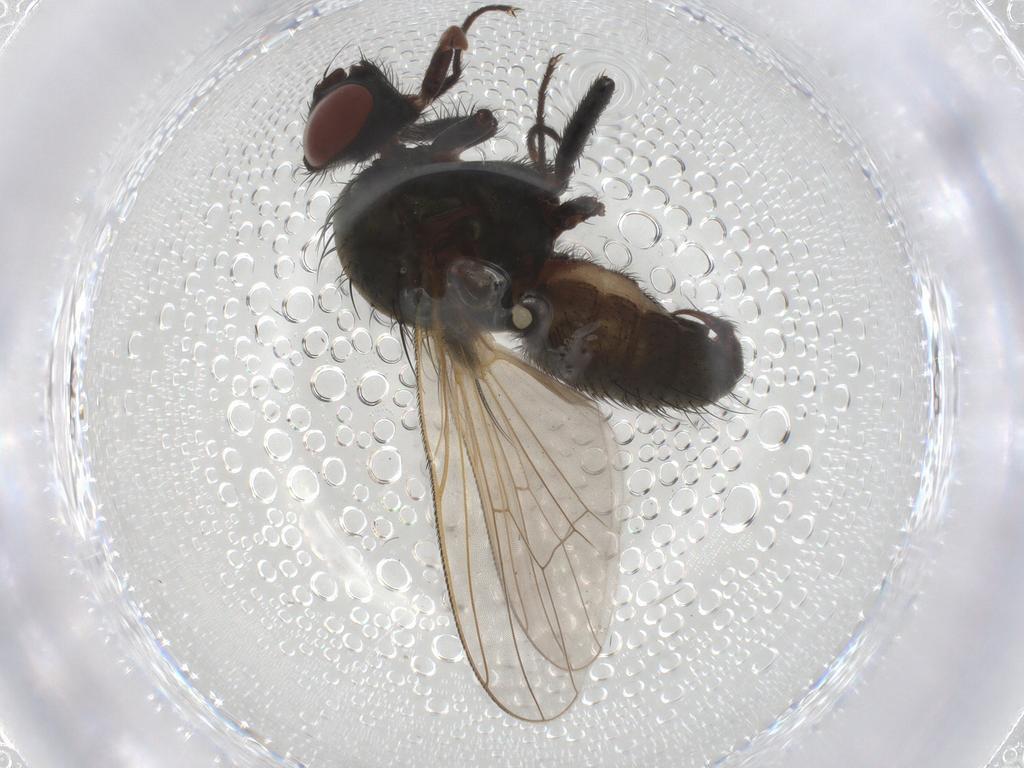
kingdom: Animalia
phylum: Arthropoda
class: Insecta
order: Diptera
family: Anthomyiidae
